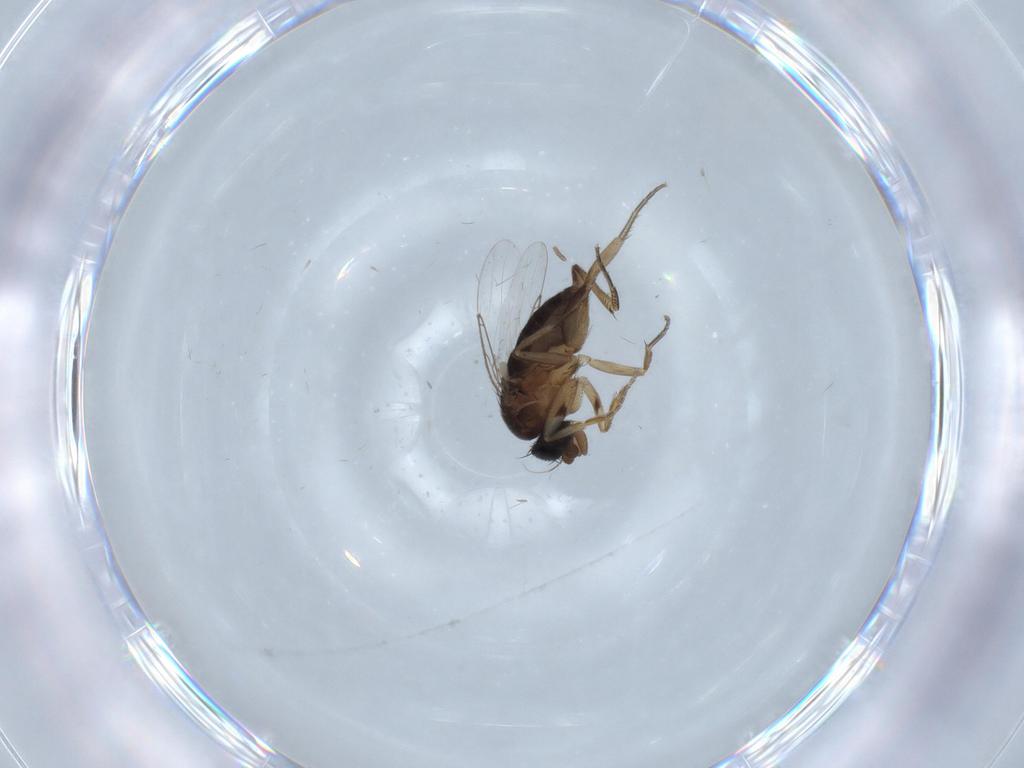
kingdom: Animalia
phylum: Arthropoda
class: Insecta
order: Diptera
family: Phoridae
